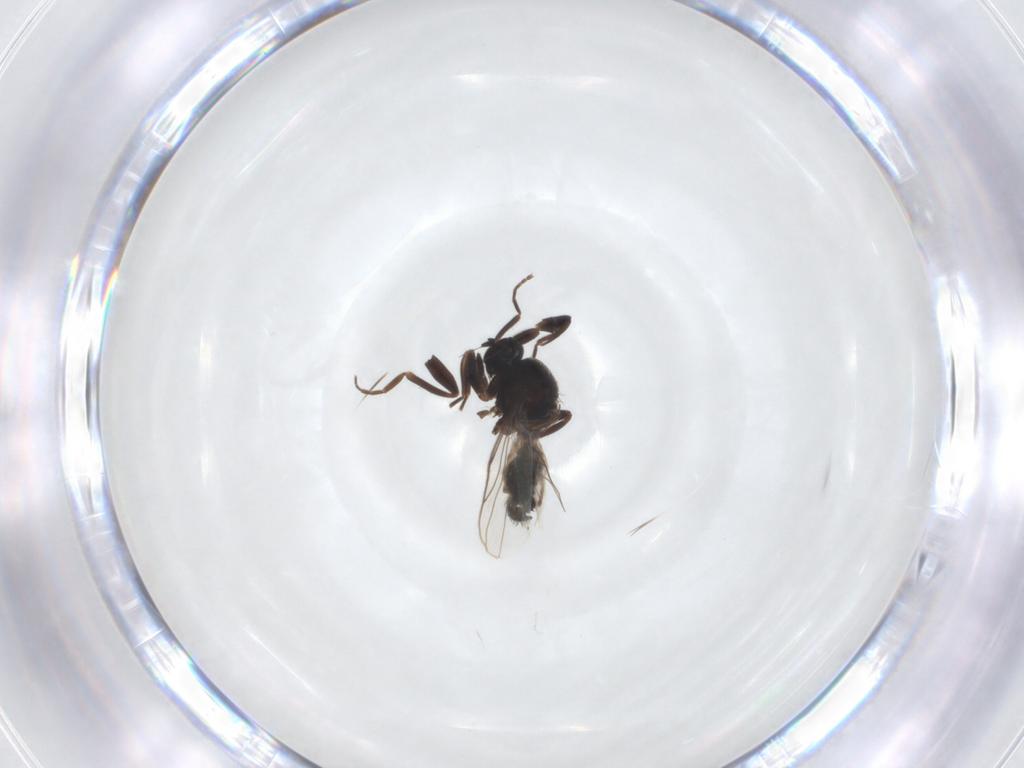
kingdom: Animalia
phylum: Arthropoda
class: Insecta
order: Diptera
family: Hybotidae
